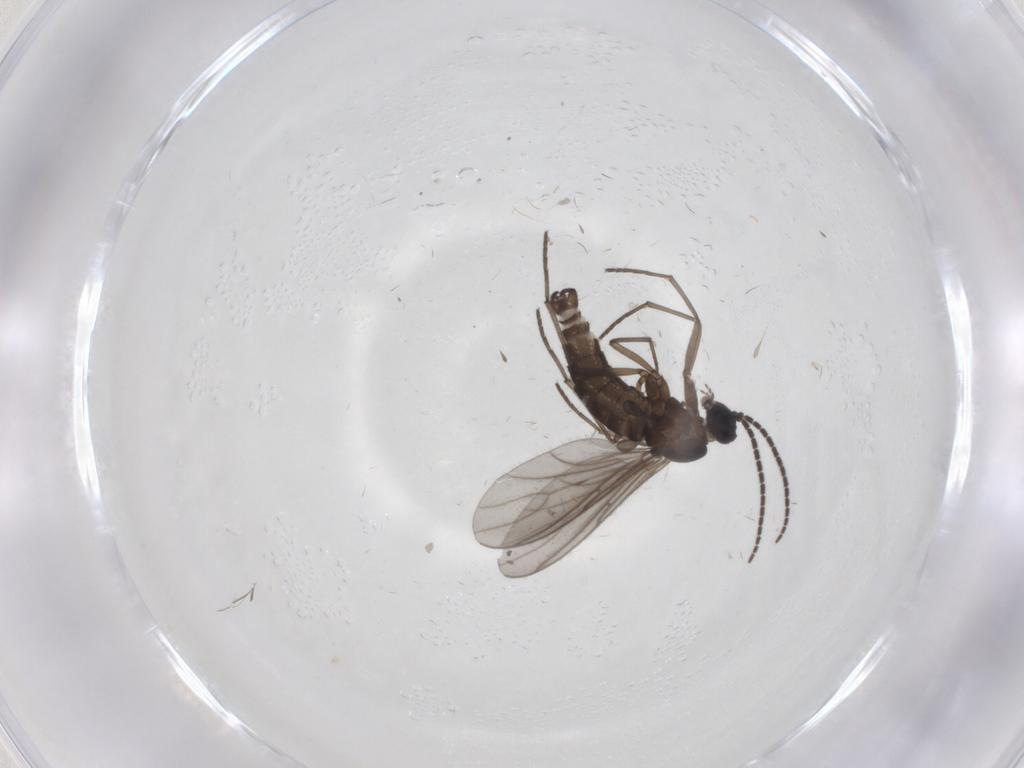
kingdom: Animalia
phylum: Arthropoda
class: Insecta
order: Diptera
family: Sciaridae
